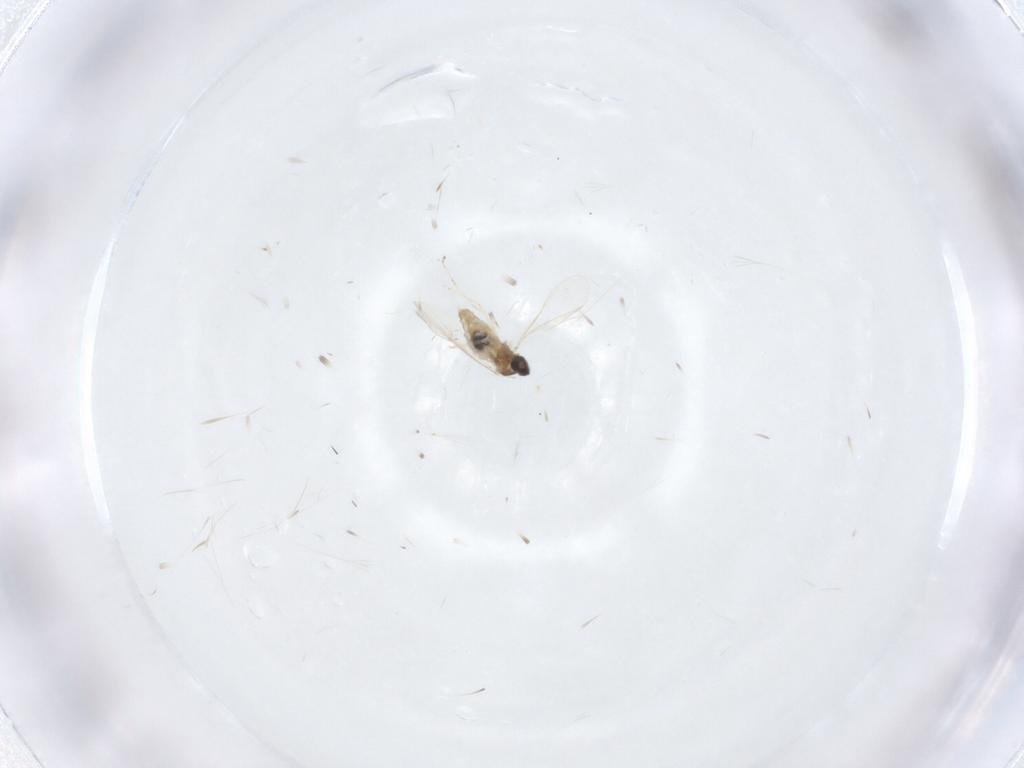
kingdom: Animalia
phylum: Arthropoda
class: Insecta
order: Diptera
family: Cecidomyiidae
